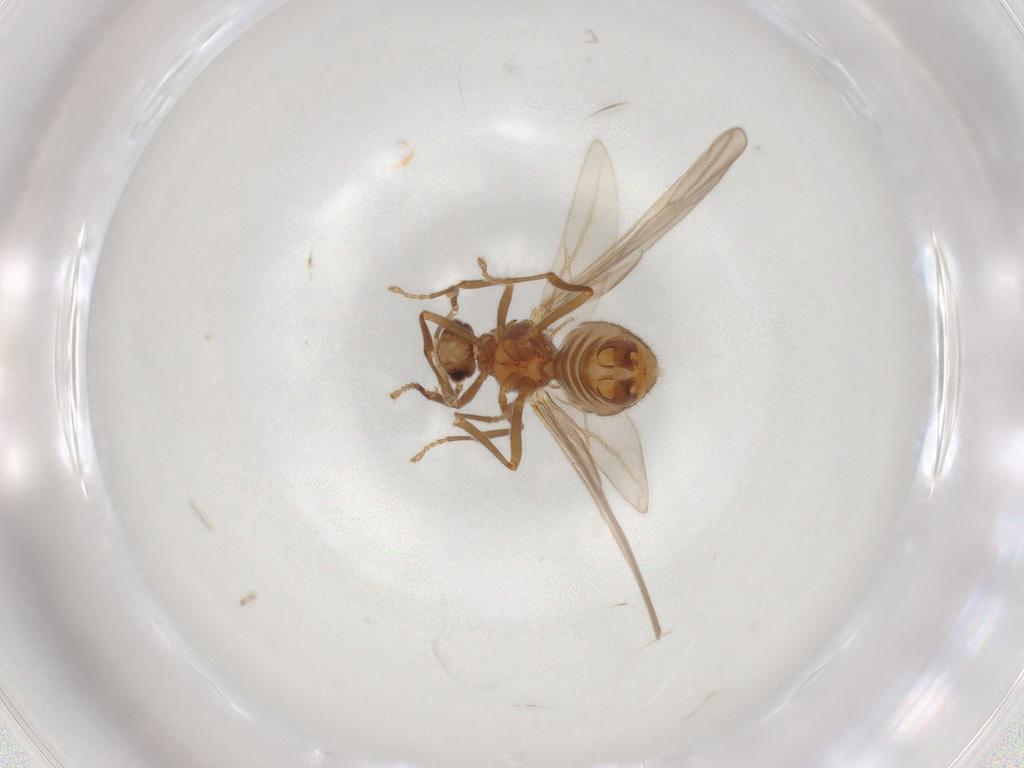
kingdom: Animalia
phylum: Arthropoda
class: Insecta
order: Hymenoptera
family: Formicidae
